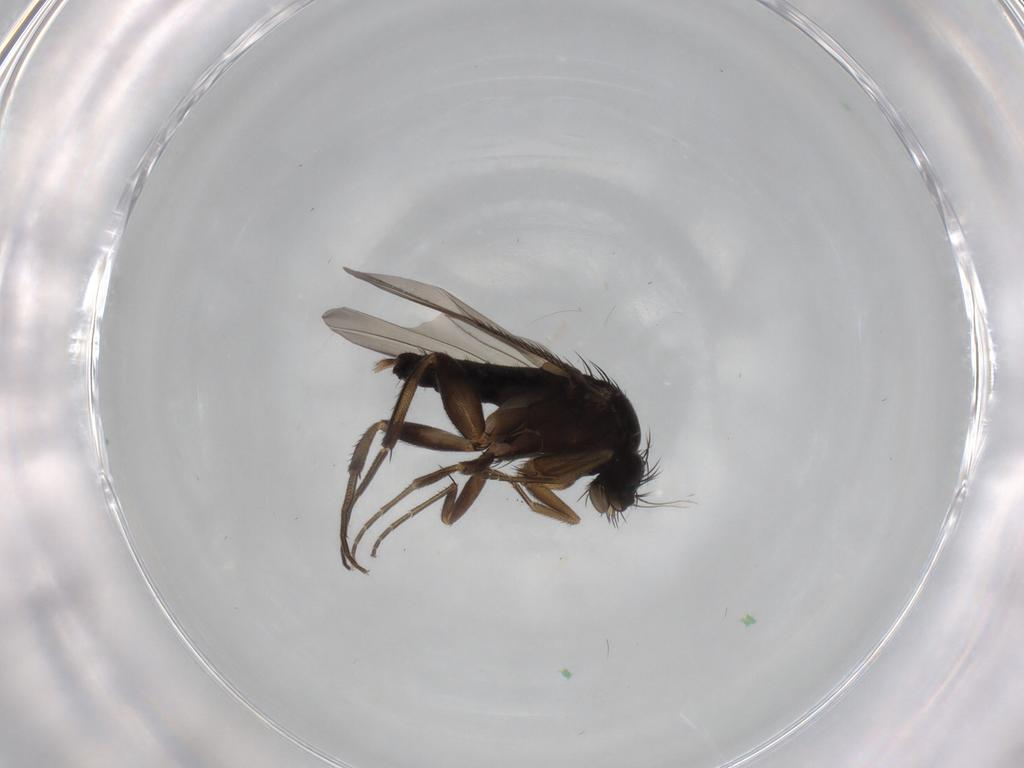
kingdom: Animalia
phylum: Arthropoda
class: Insecta
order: Diptera
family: Phoridae
